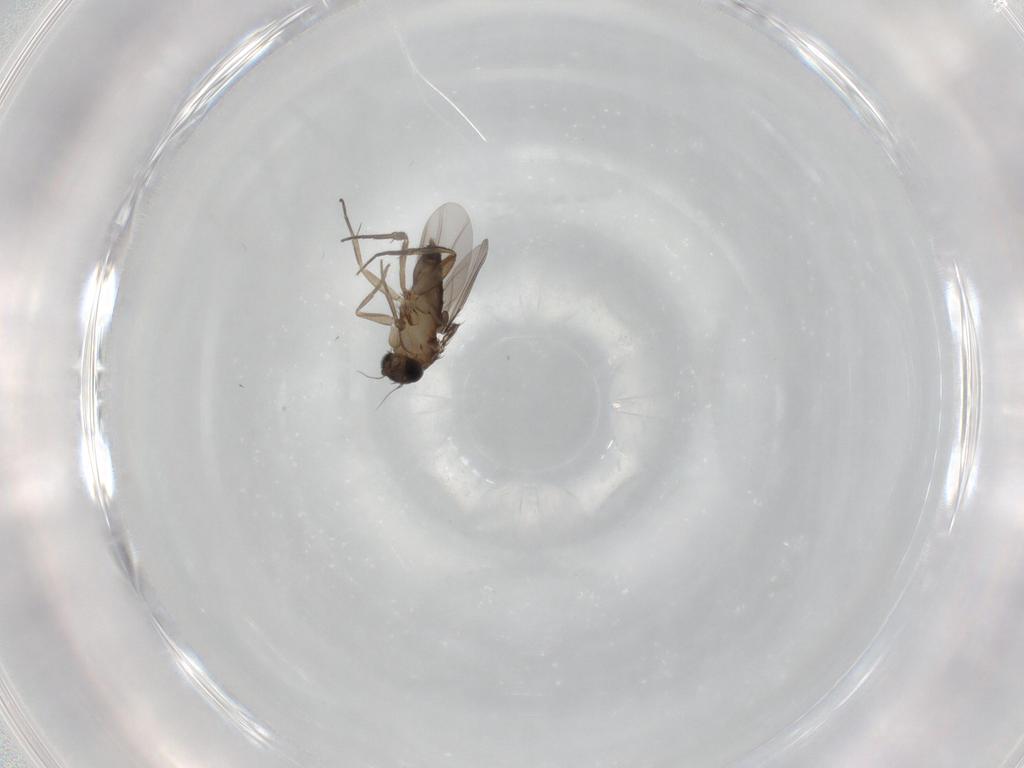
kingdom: Animalia
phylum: Arthropoda
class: Insecta
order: Diptera
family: Phoridae
